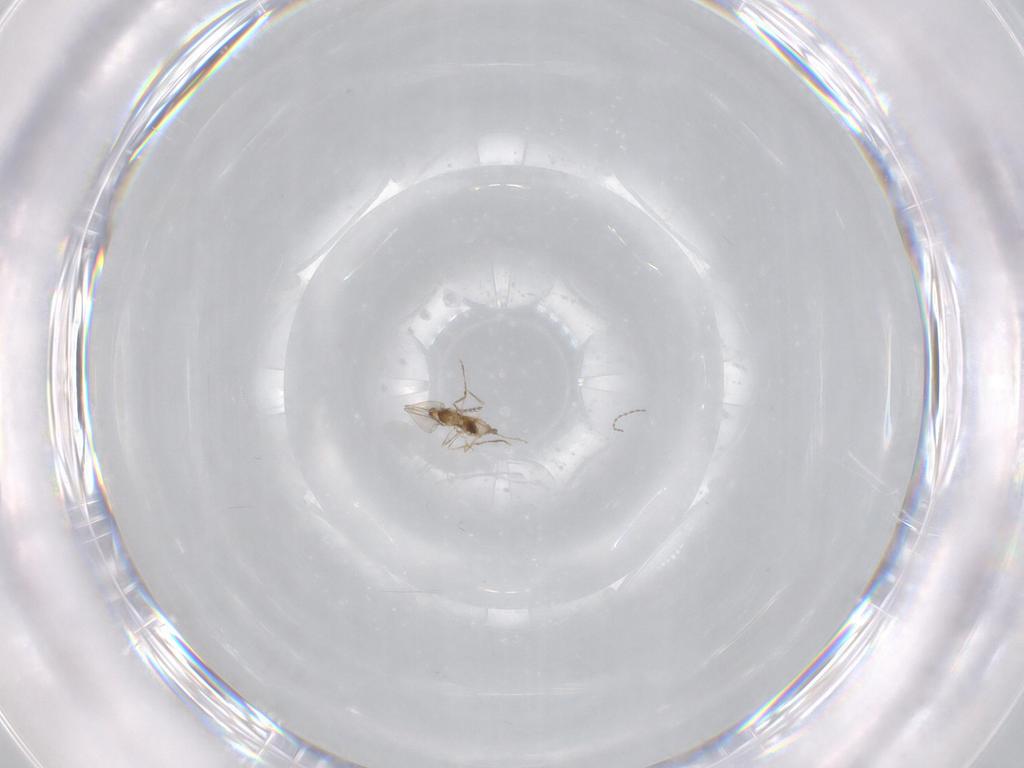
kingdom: Animalia
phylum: Arthropoda
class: Insecta
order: Diptera
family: Cecidomyiidae
